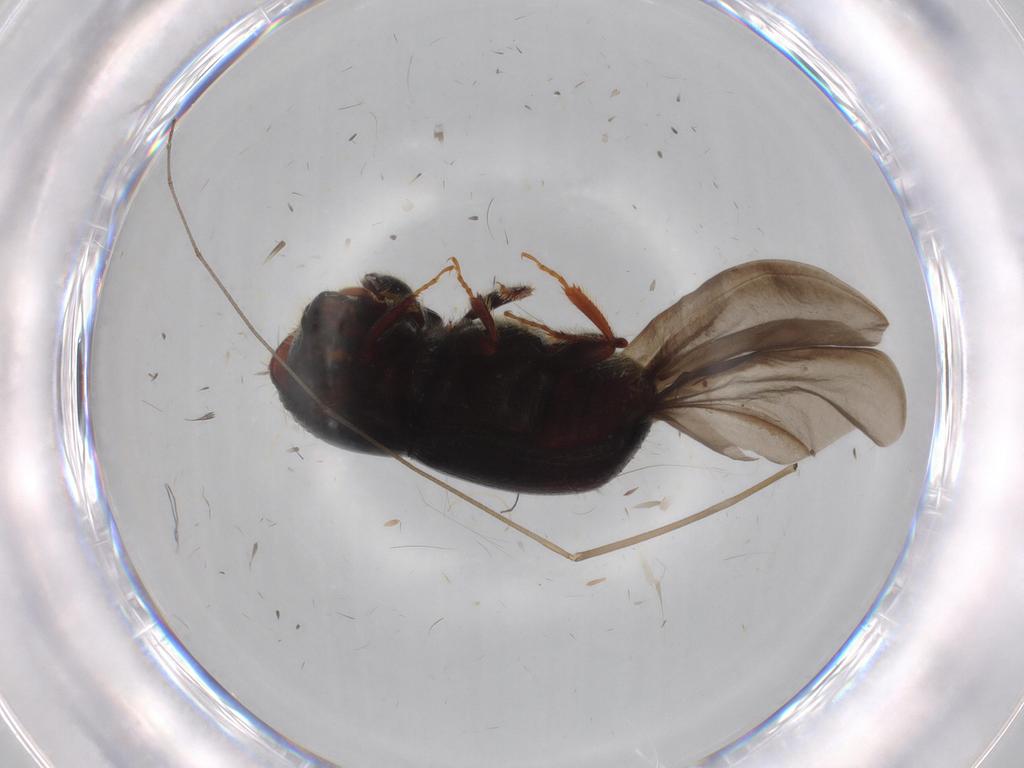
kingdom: Animalia
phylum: Arthropoda
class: Insecta
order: Coleoptera
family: Curculionidae
